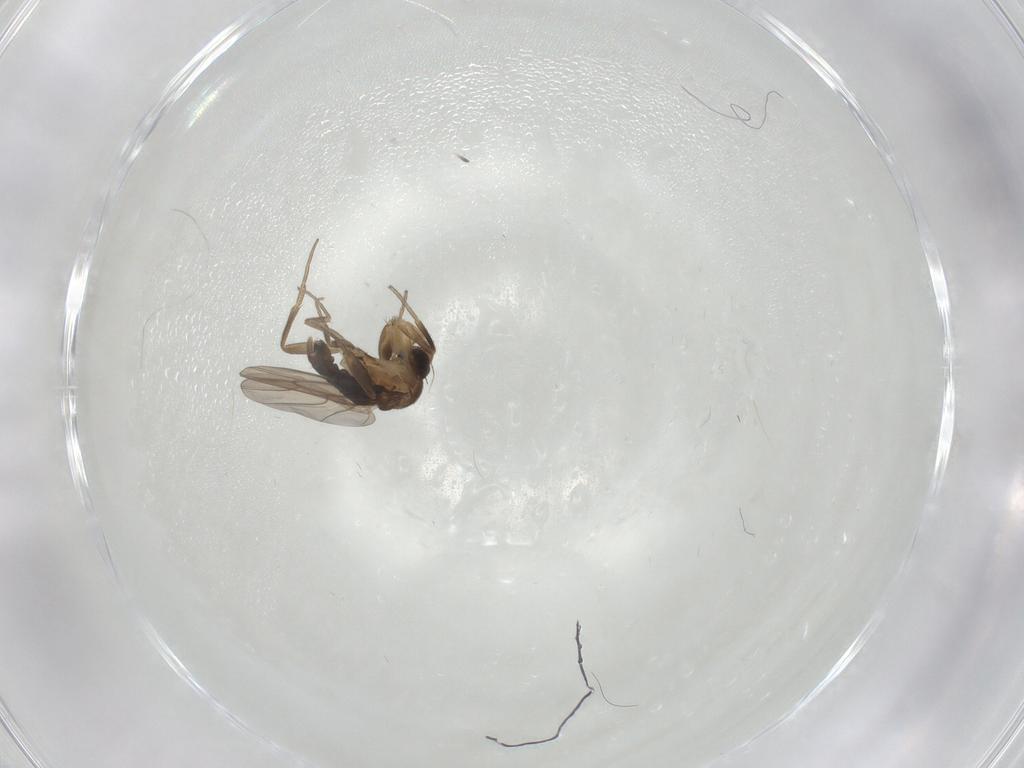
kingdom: Animalia
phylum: Arthropoda
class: Insecta
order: Diptera
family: Phoridae
